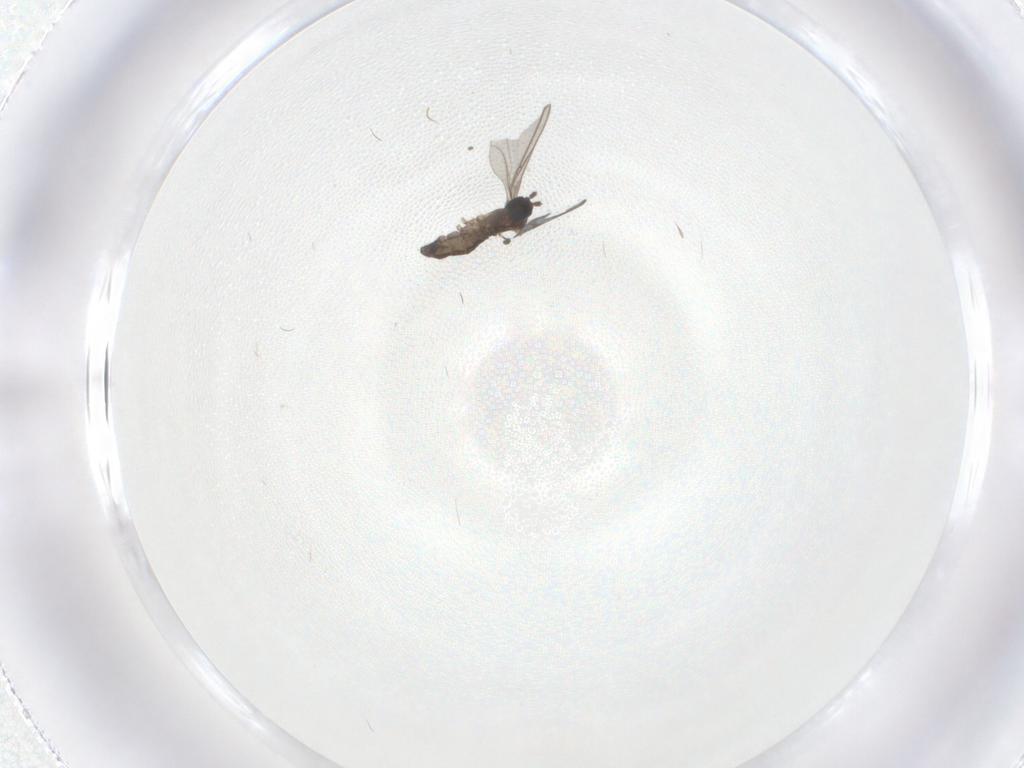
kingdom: Animalia
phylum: Arthropoda
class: Insecta
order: Diptera
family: Sciaridae
